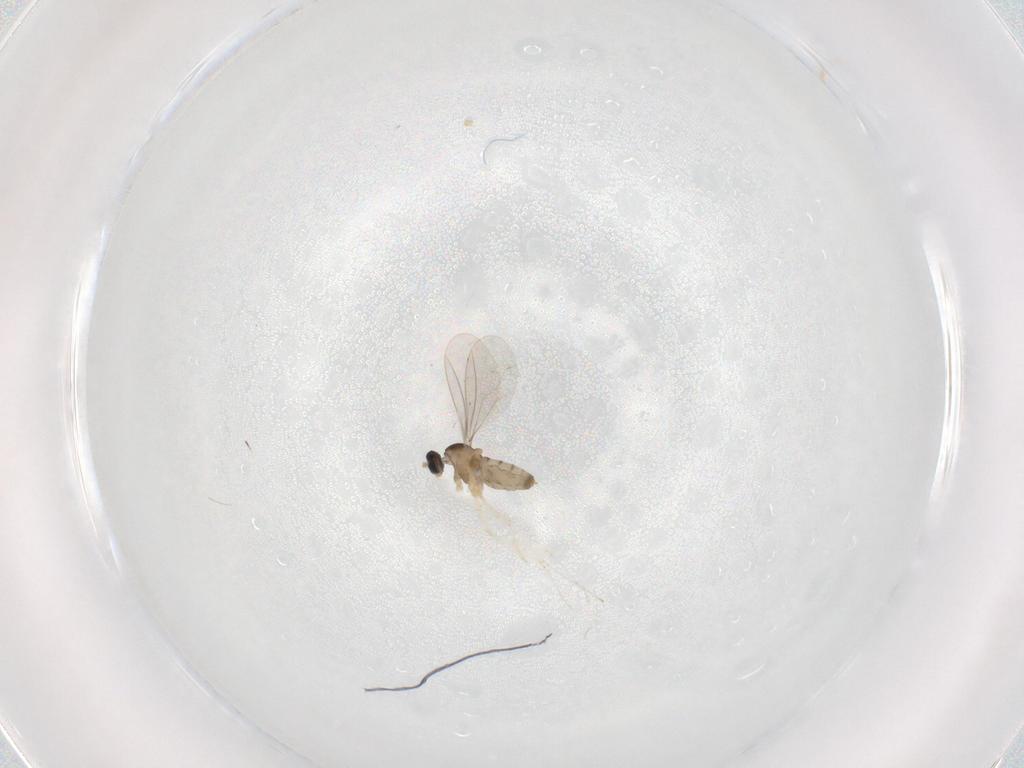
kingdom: Animalia
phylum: Arthropoda
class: Insecta
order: Diptera
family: Cecidomyiidae
